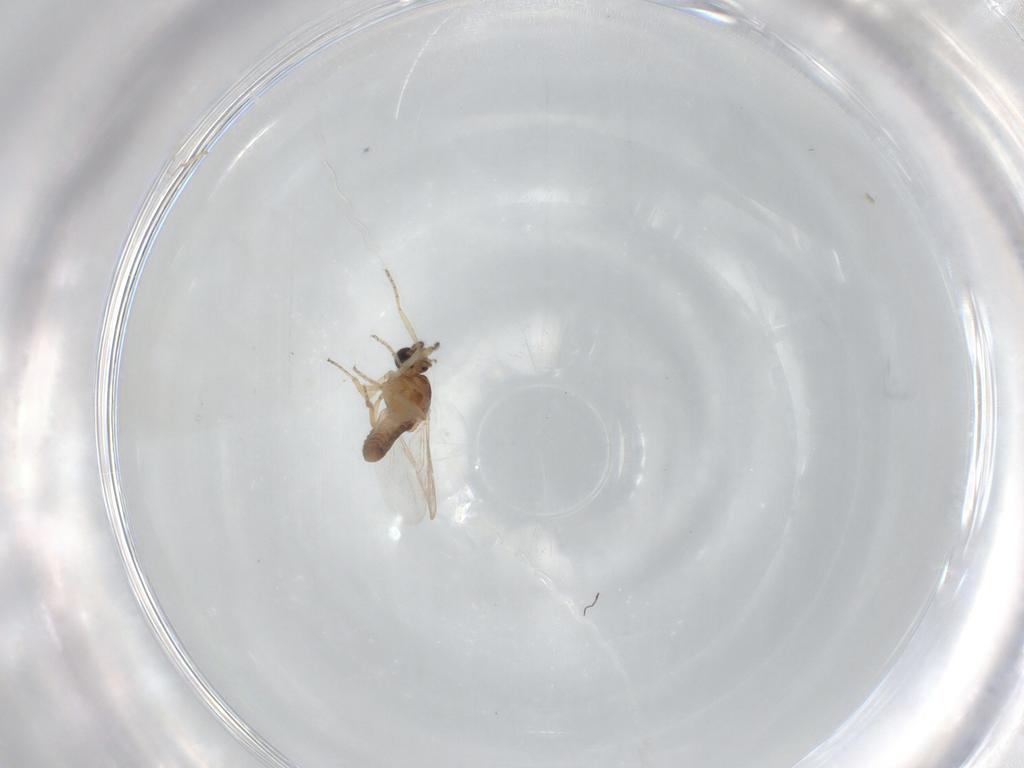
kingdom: Animalia
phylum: Arthropoda
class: Insecta
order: Diptera
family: Ceratopogonidae
